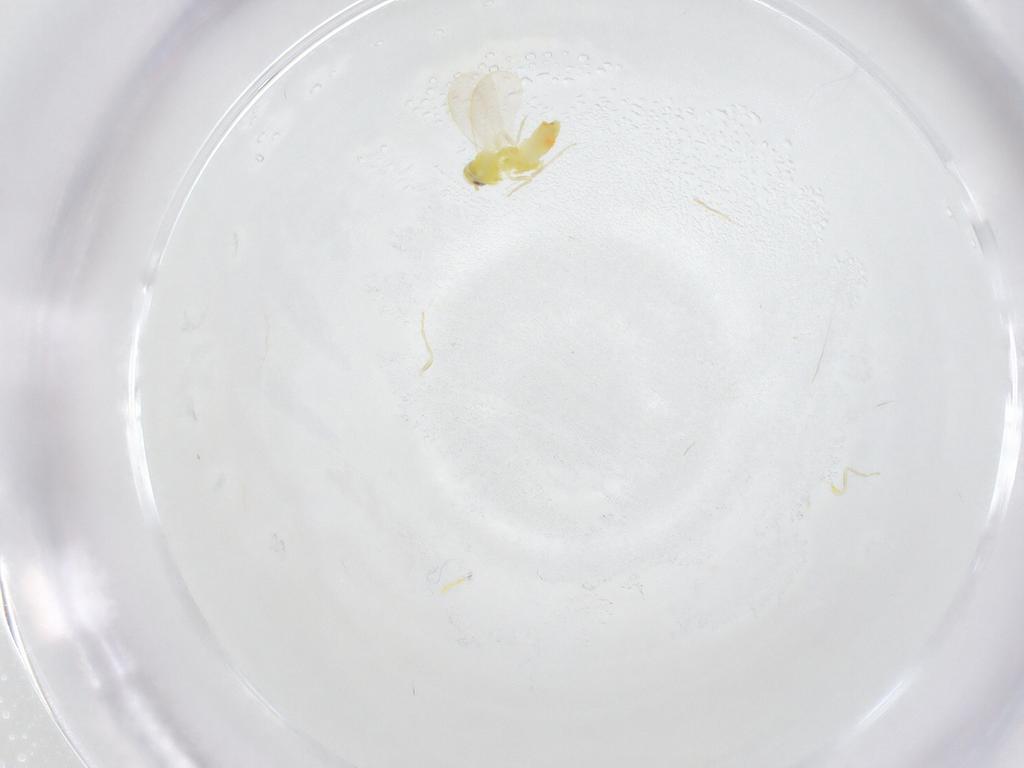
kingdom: Animalia
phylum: Arthropoda
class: Insecta
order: Hemiptera
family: Aleyrodidae
